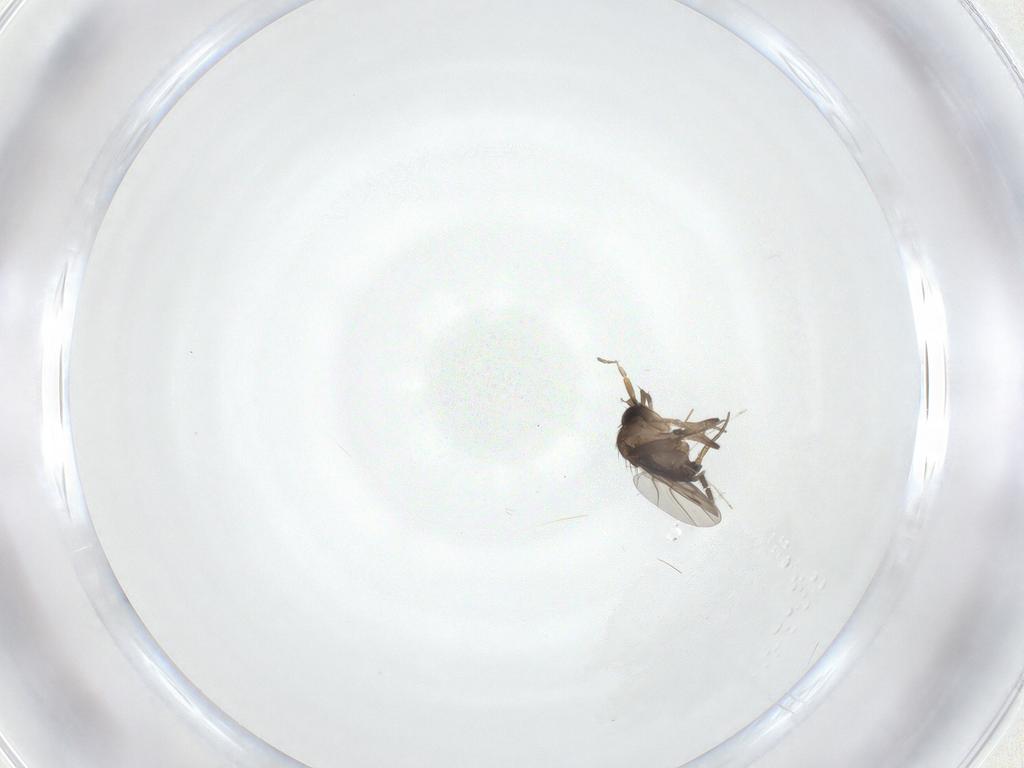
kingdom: Animalia
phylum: Arthropoda
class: Insecta
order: Diptera
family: Phoridae
